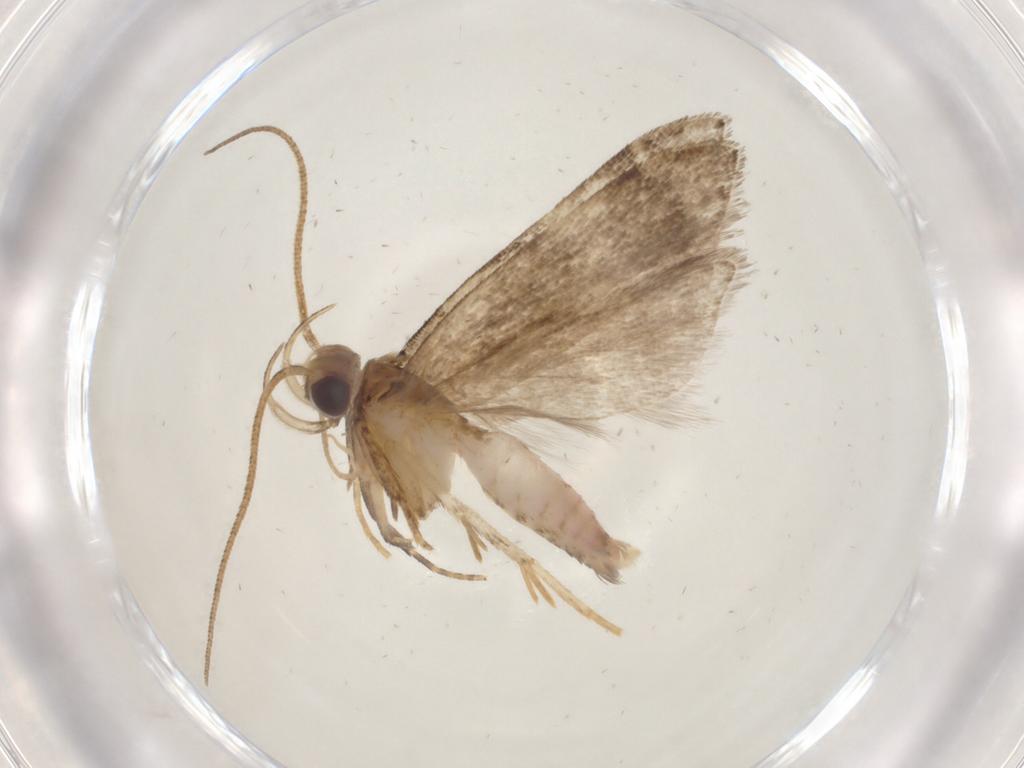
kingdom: Animalia
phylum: Arthropoda
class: Insecta
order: Lepidoptera
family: Gelechiidae
